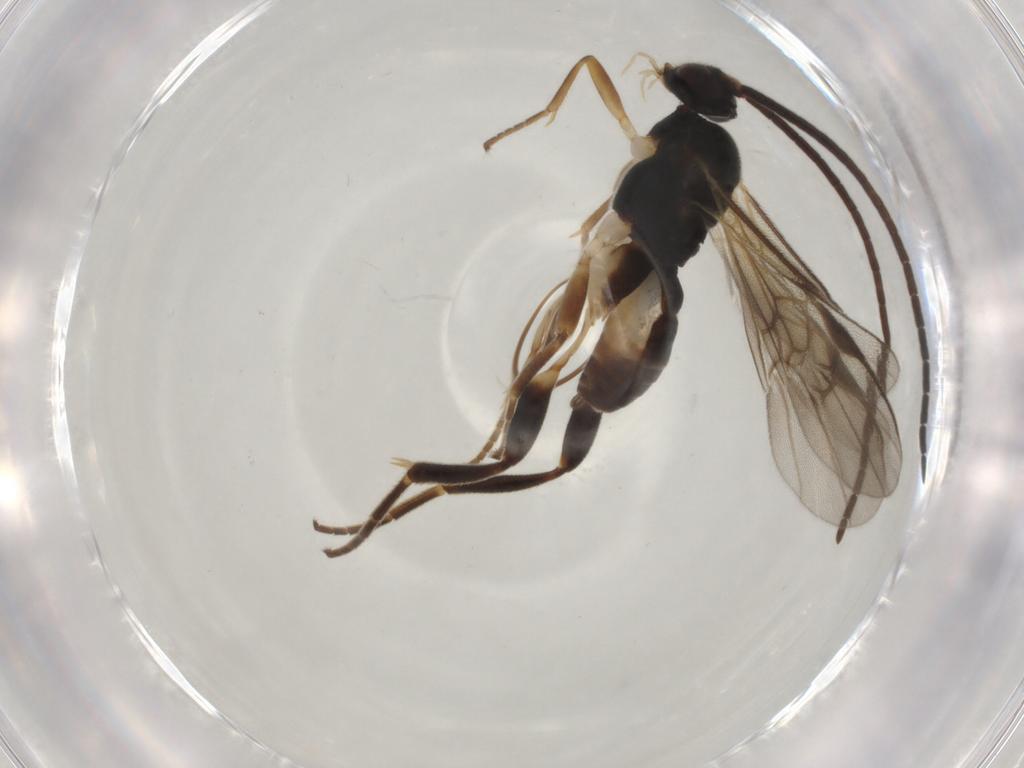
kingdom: Animalia
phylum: Arthropoda
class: Insecta
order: Hymenoptera
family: Braconidae
